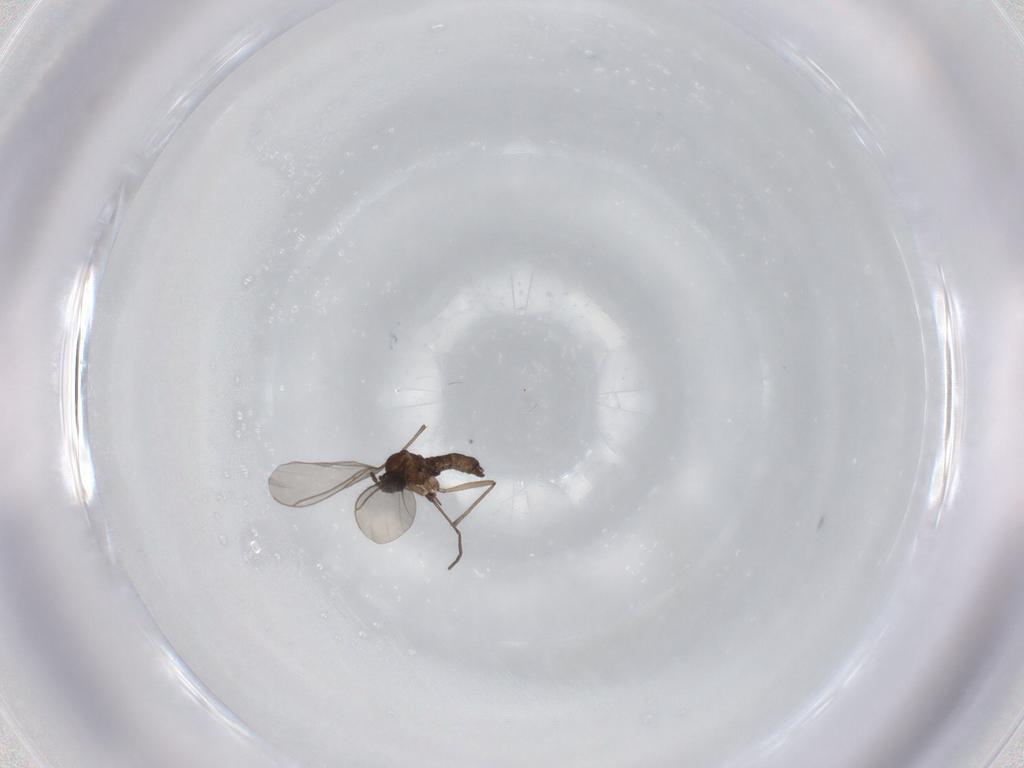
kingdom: Animalia
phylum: Arthropoda
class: Insecta
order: Diptera
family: Sciaridae
